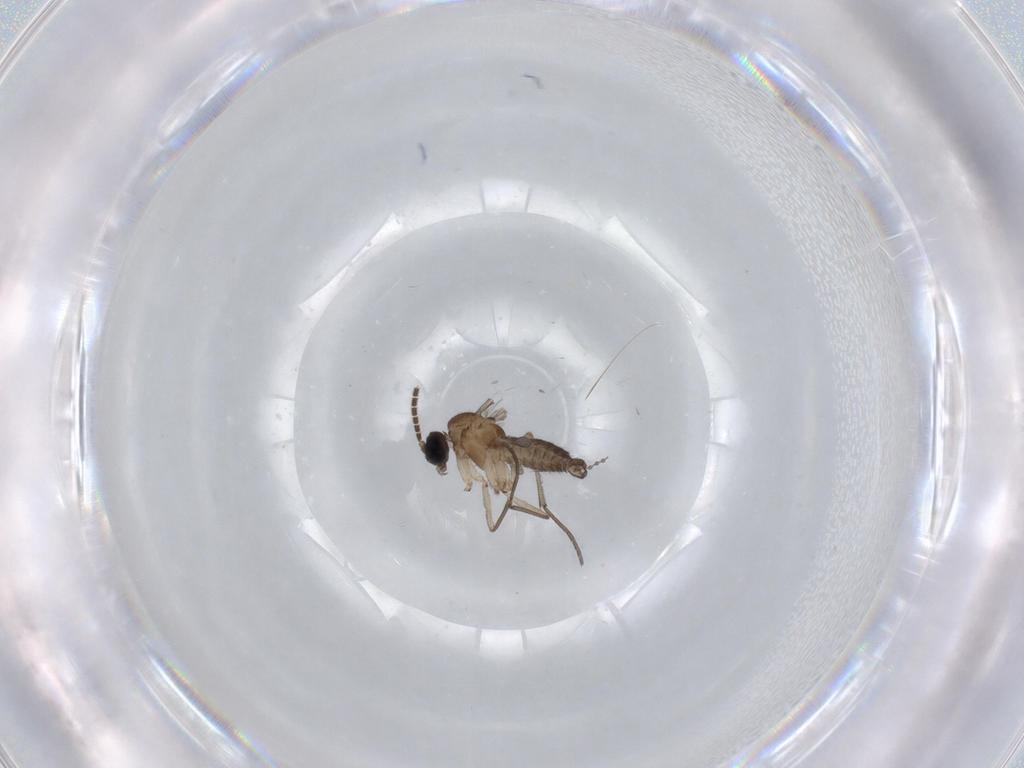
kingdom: Animalia
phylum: Arthropoda
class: Insecta
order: Diptera
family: Sciaridae
